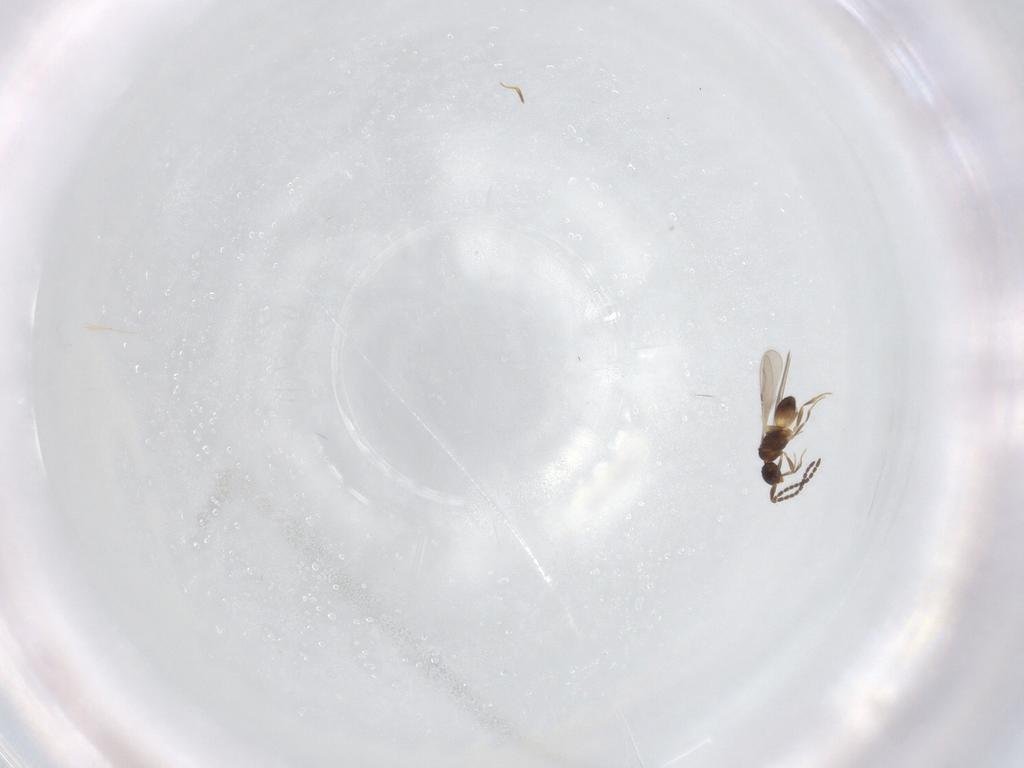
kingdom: Animalia
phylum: Arthropoda
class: Insecta
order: Hymenoptera
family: Ceraphronidae
